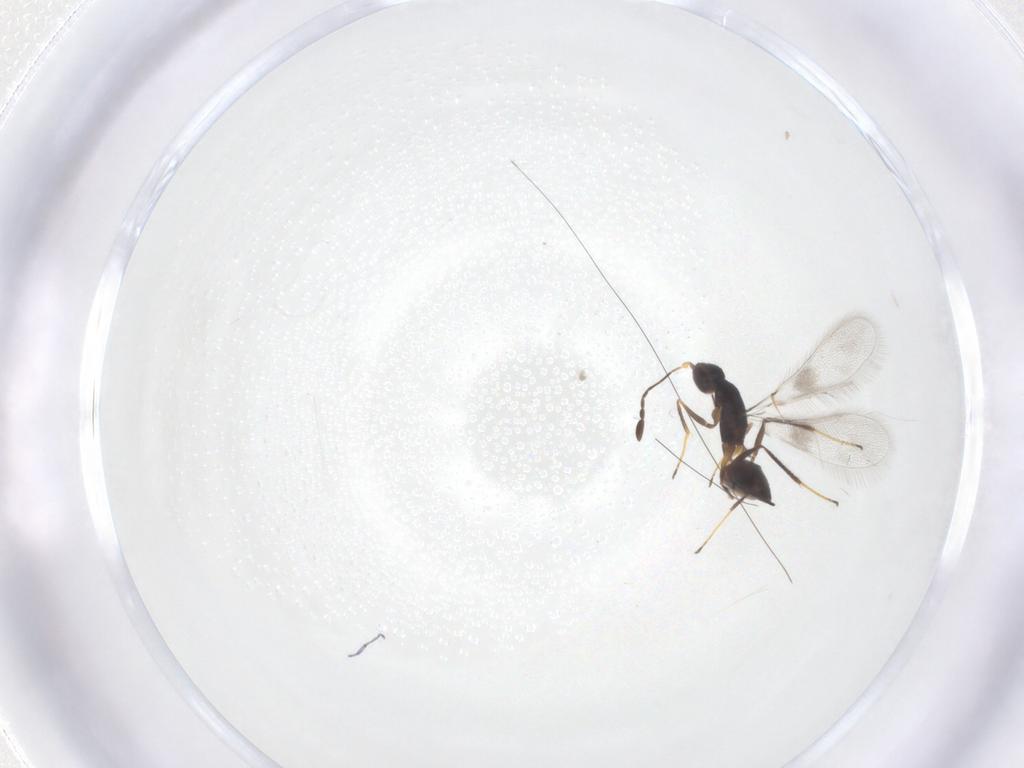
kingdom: Animalia
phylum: Arthropoda
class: Insecta
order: Hymenoptera
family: Mymaridae
